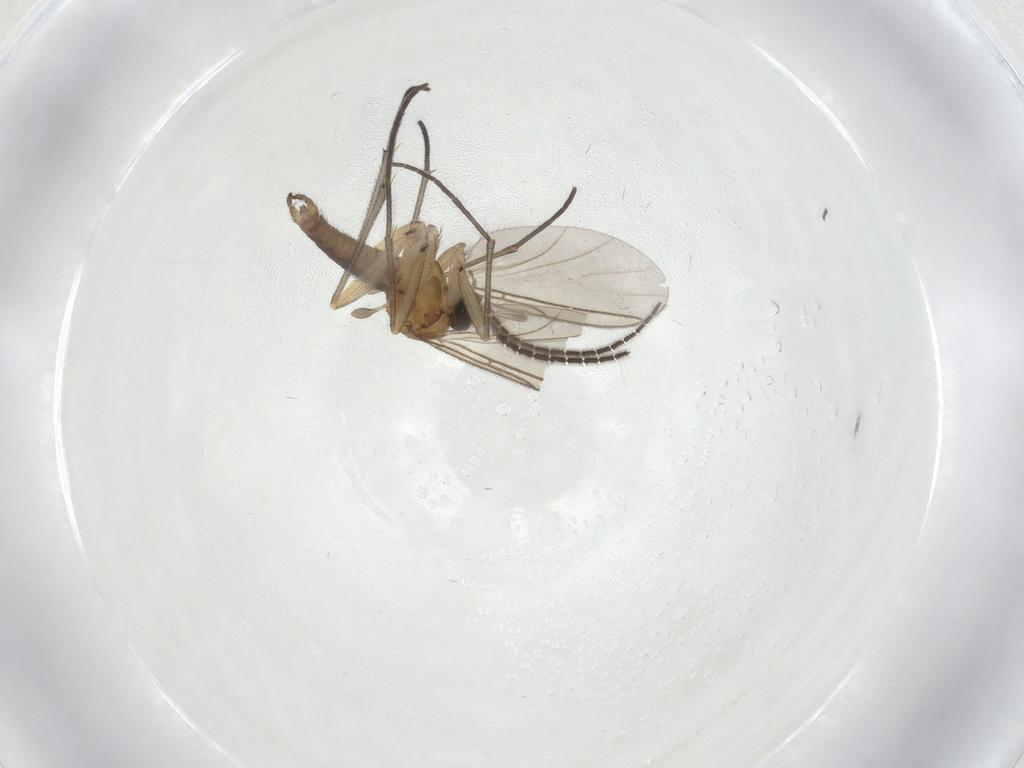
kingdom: Animalia
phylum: Arthropoda
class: Insecta
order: Diptera
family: Sciaridae
